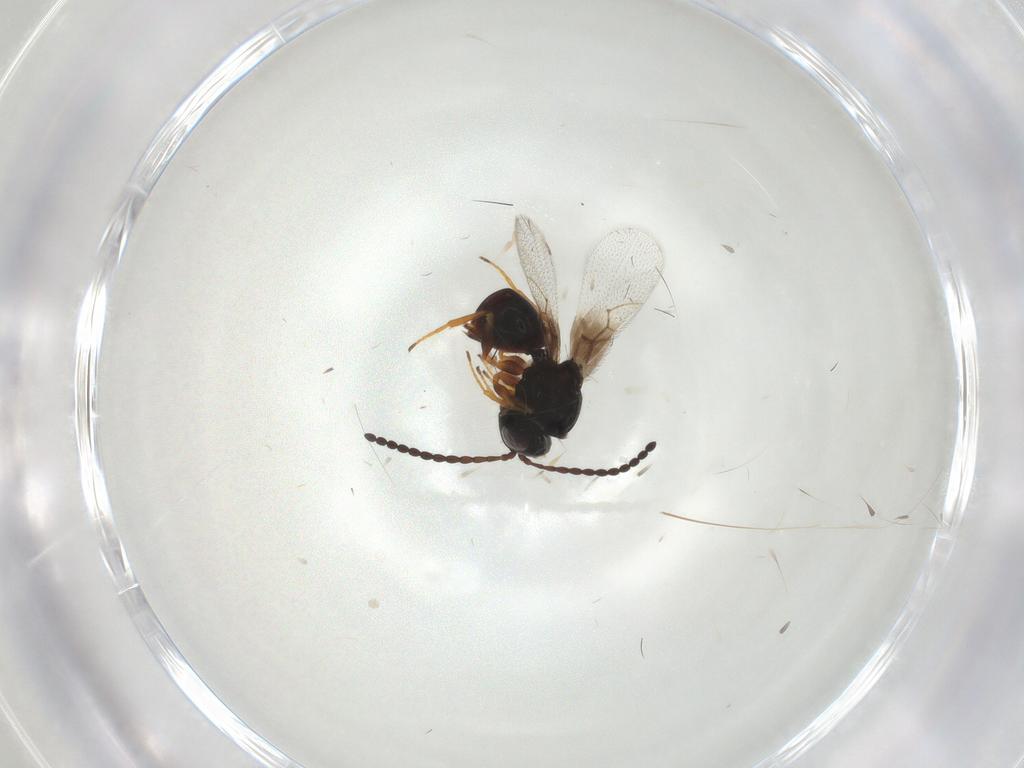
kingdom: Animalia
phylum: Arthropoda
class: Insecta
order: Hymenoptera
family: Figitidae
